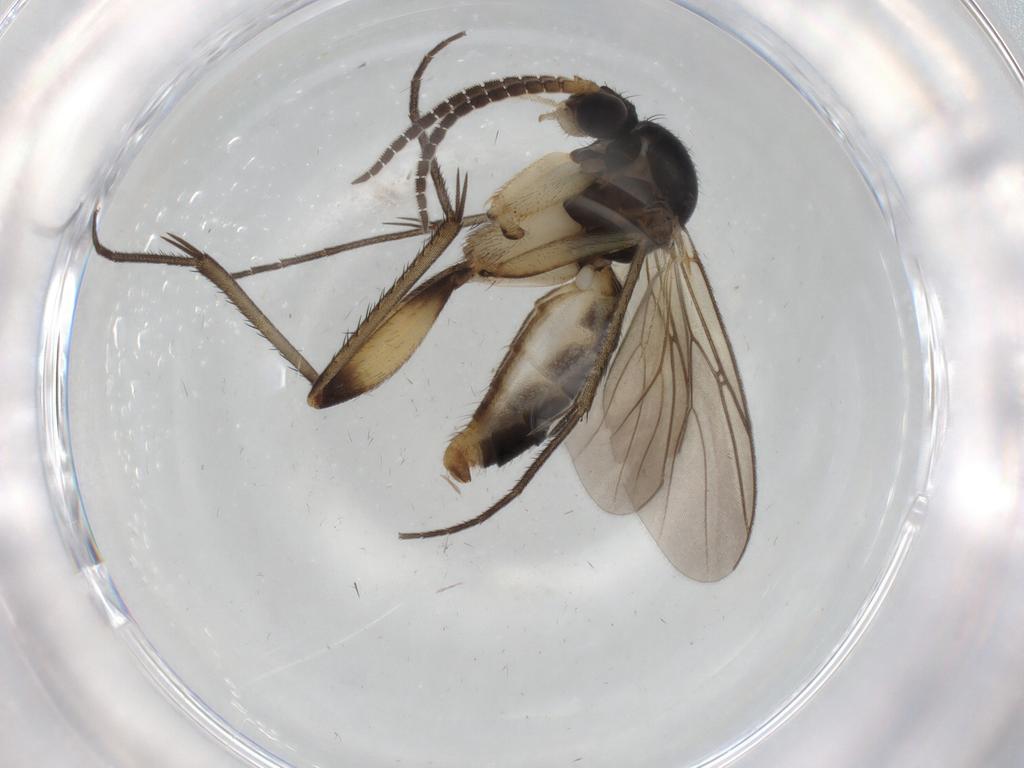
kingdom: Animalia
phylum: Arthropoda
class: Insecta
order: Diptera
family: Mycetophilidae
